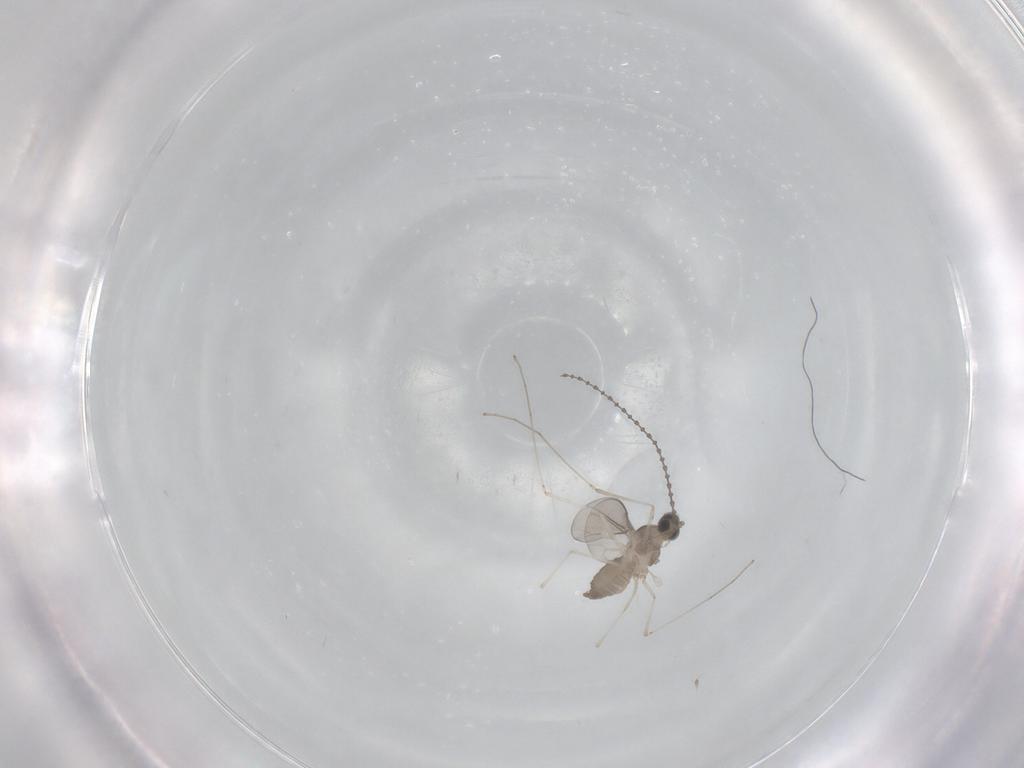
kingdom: Animalia
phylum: Arthropoda
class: Insecta
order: Diptera
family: Cecidomyiidae
